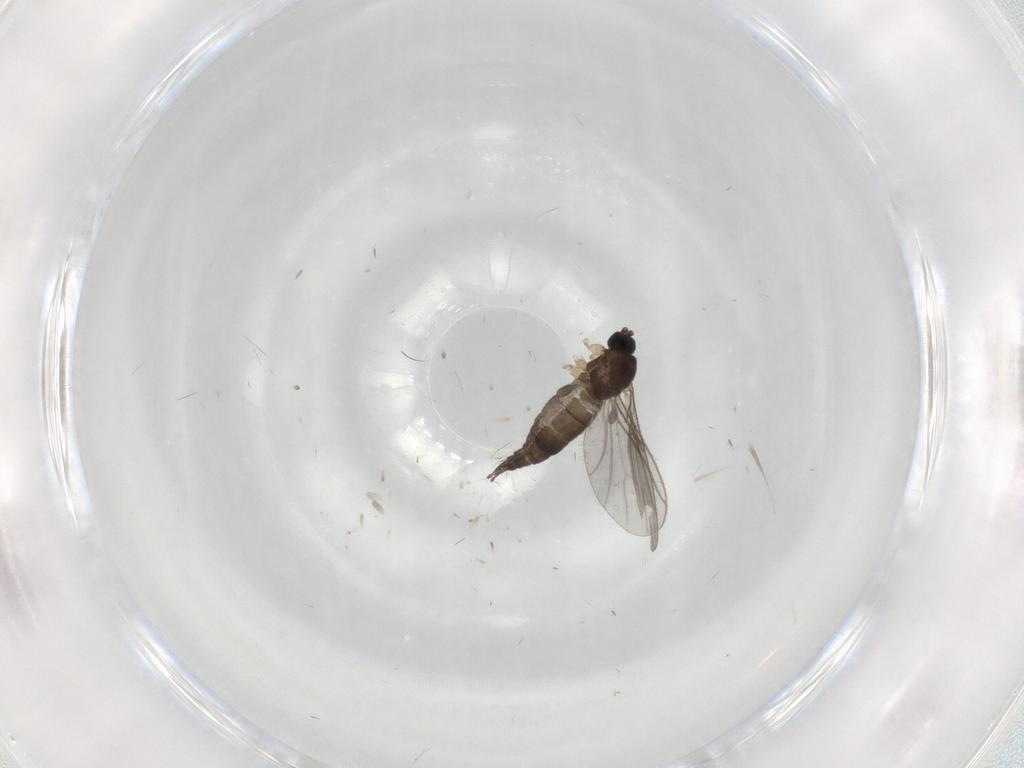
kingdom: Animalia
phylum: Arthropoda
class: Insecta
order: Diptera
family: Sciaridae
